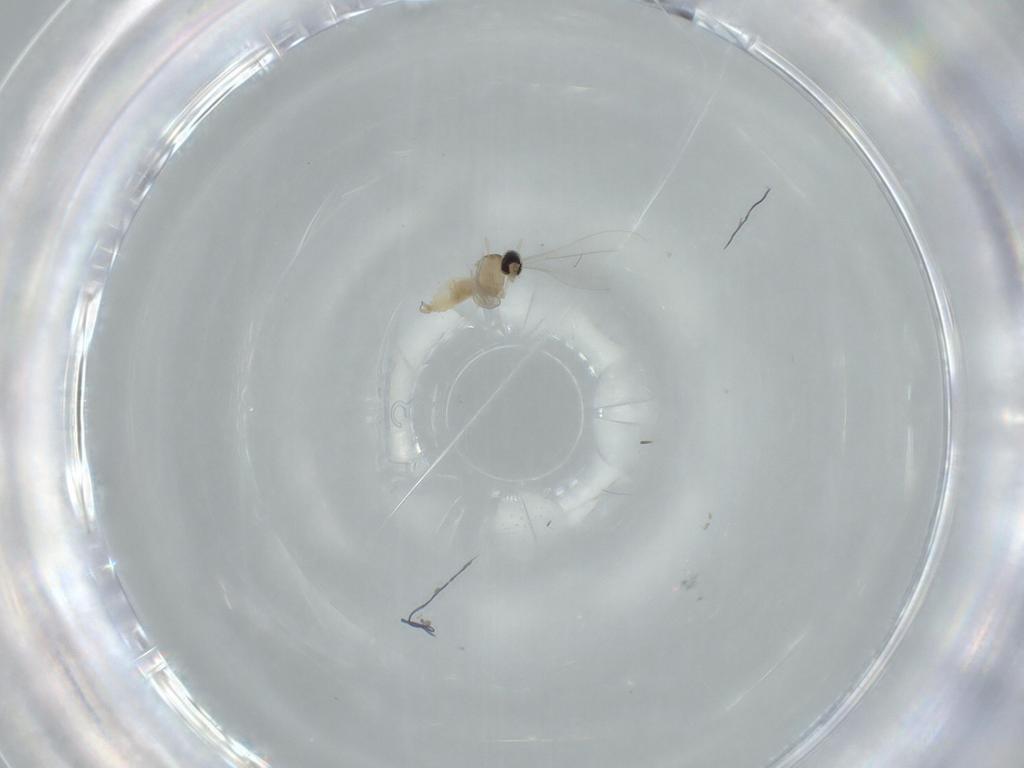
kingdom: Animalia
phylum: Arthropoda
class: Insecta
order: Diptera
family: Cecidomyiidae
